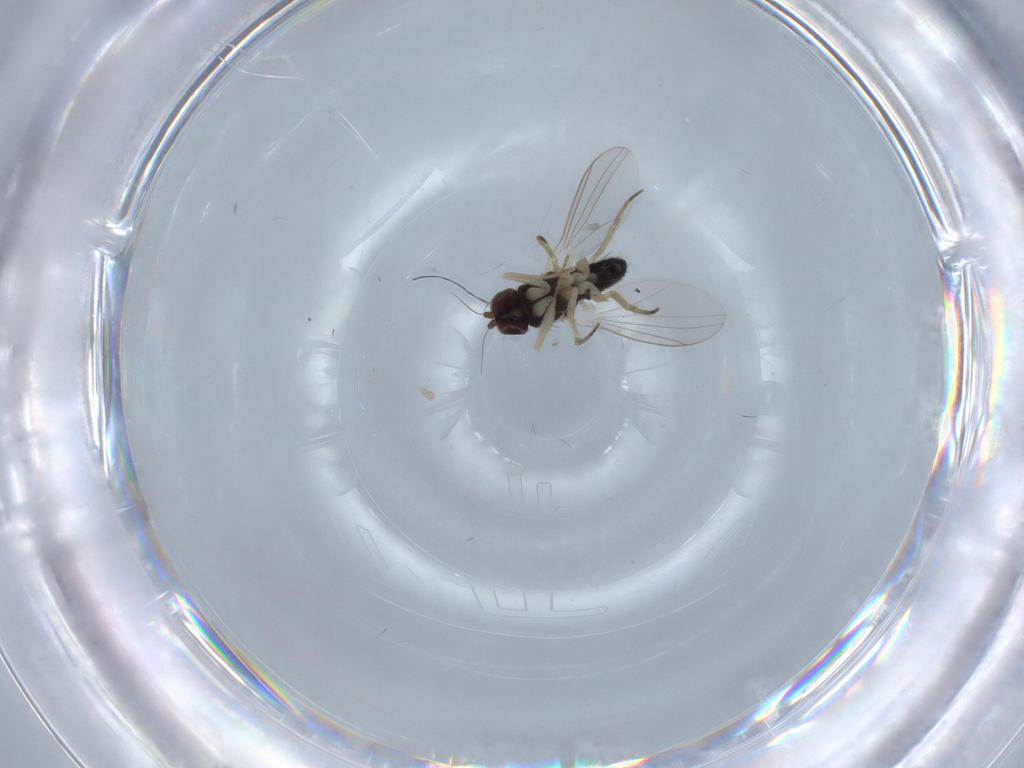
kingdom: Animalia
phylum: Arthropoda
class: Insecta
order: Diptera
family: Dolichopodidae
